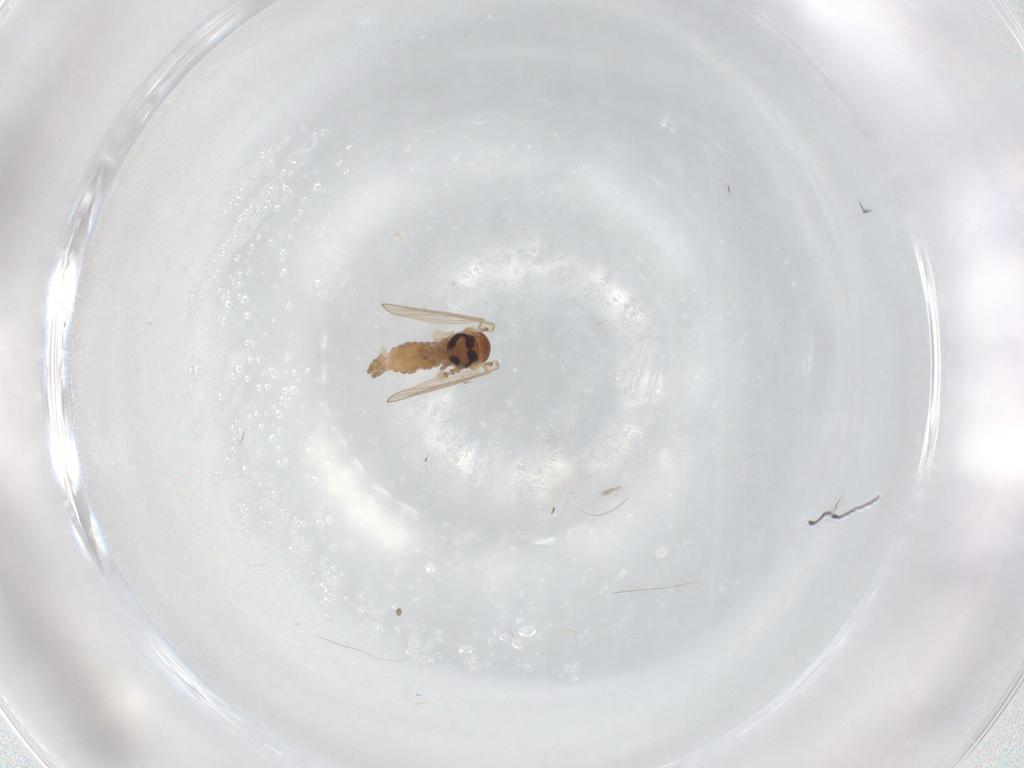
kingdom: Animalia
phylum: Arthropoda
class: Insecta
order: Diptera
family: Psychodidae
